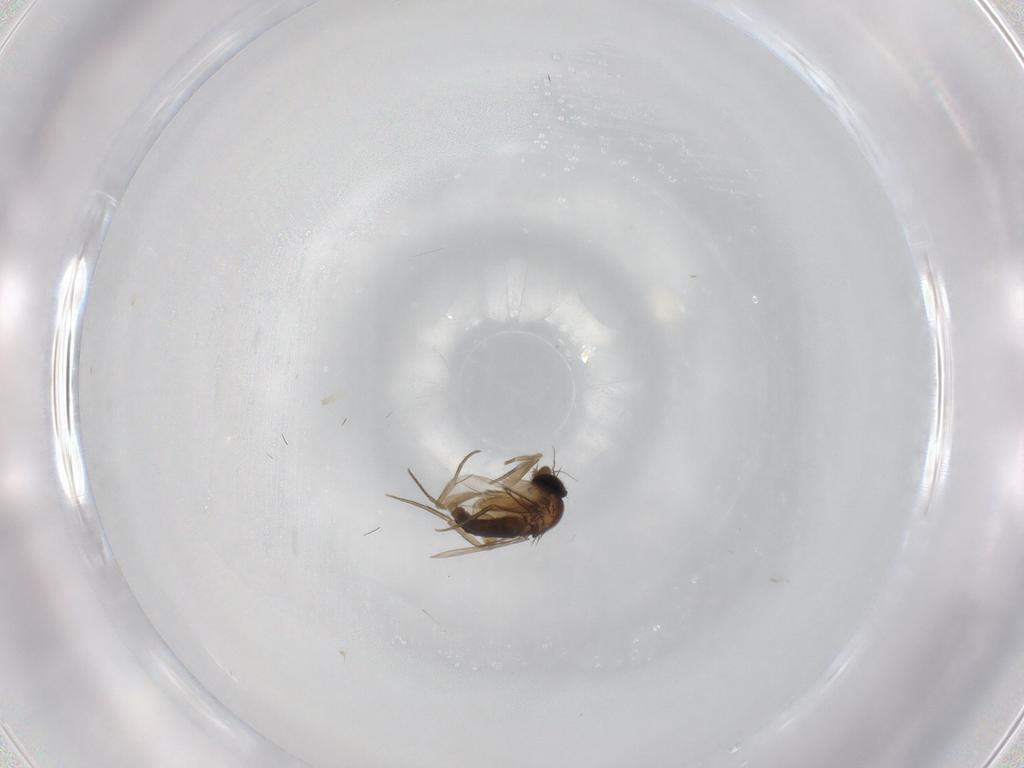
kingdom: Animalia
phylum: Arthropoda
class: Insecta
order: Diptera
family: Phoridae
